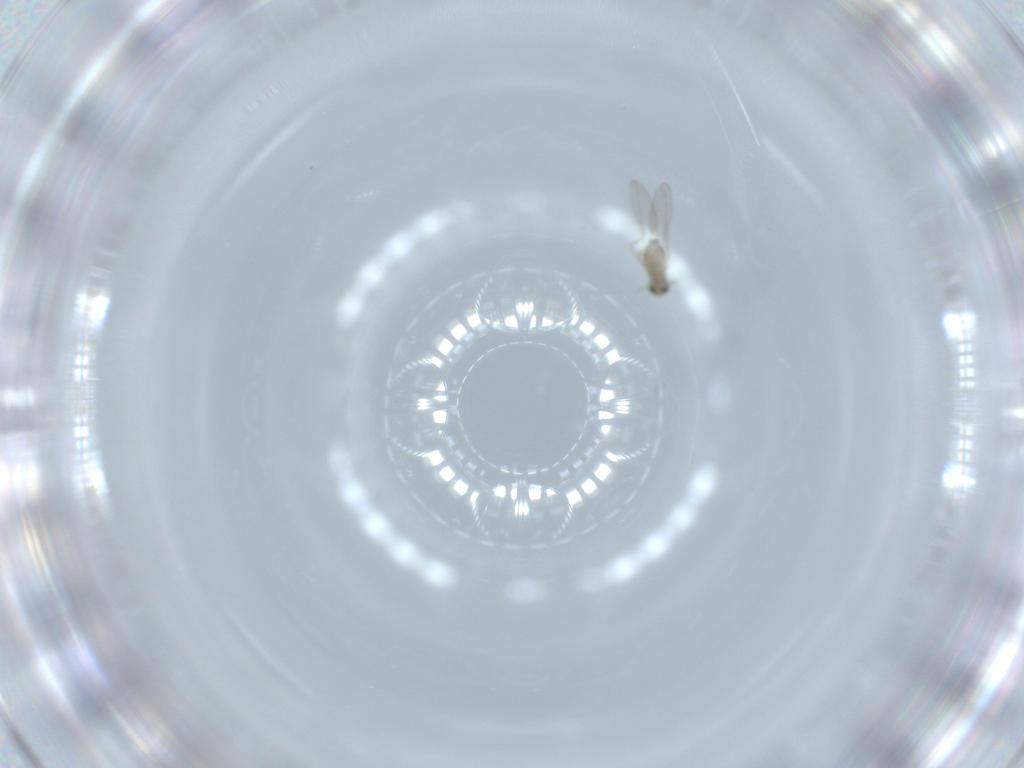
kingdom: Animalia
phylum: Arthropoda
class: Insecta
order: Diptera
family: Cecidomyiidae
